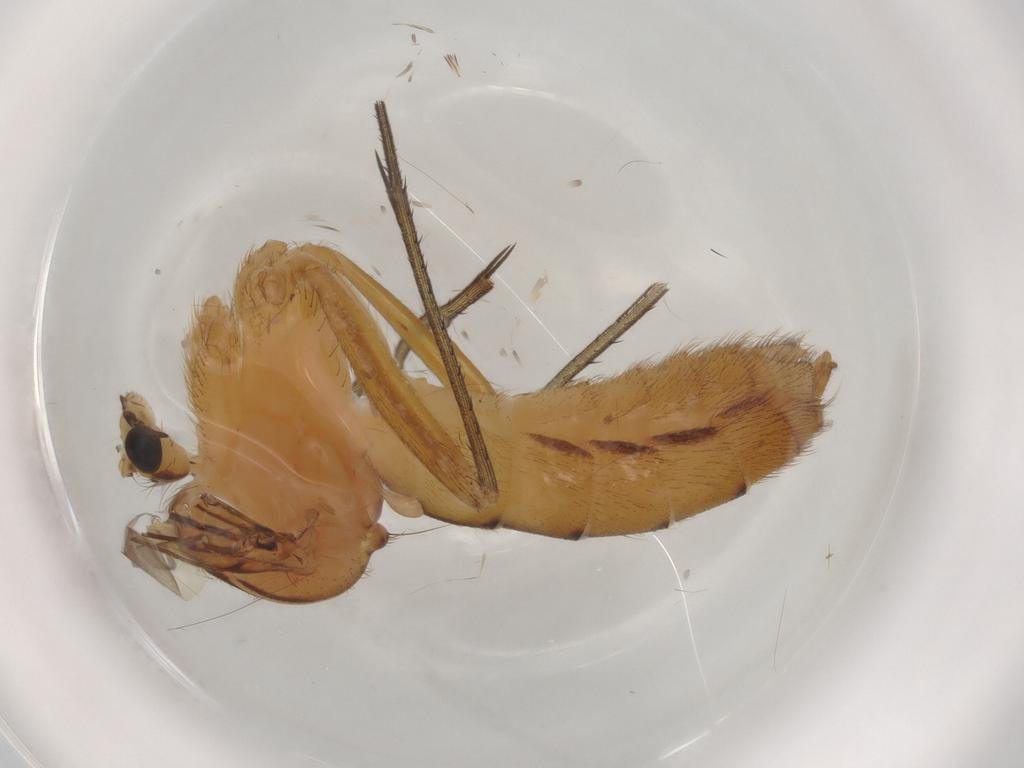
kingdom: Animalia
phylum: Arthropoda
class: Insecta
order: Diptera
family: Mycetophilidae
